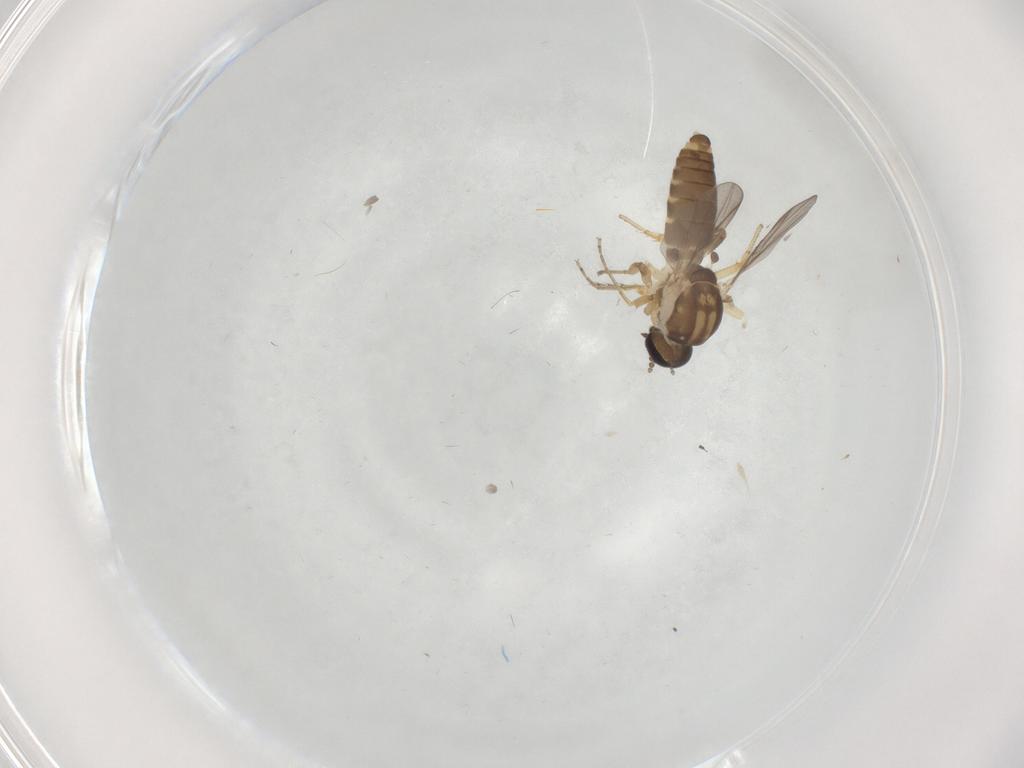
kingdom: Animalia
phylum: Arthropoda
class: Insecta
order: Diptera
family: Cecidomyiidae
